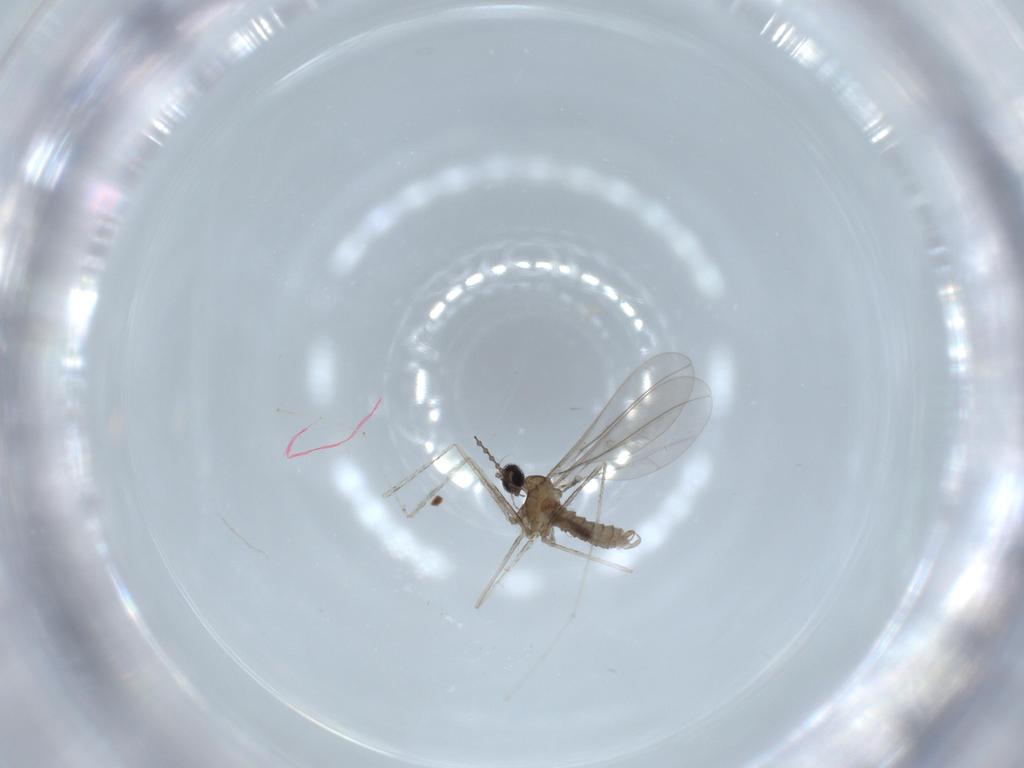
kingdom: Animalia
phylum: Arthropoda
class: Insecta
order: Diptera
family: Cecidomyiidae
